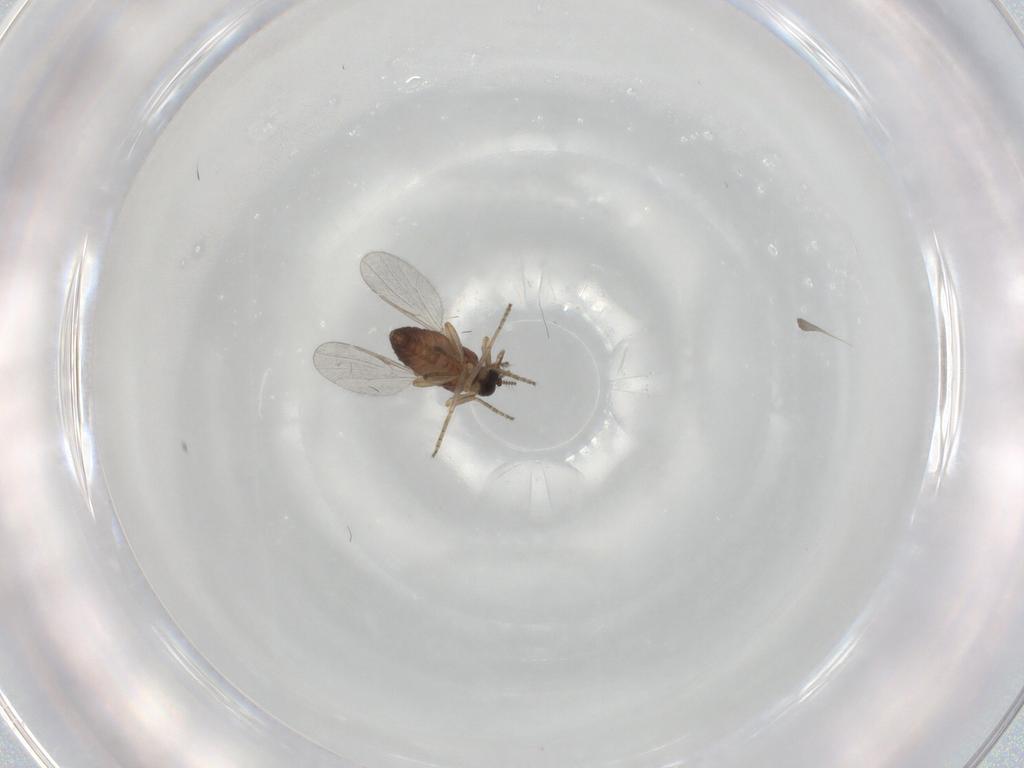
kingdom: Animalia
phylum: Arthropoda
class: Insecta
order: Diptera
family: Ceratopogonidae
